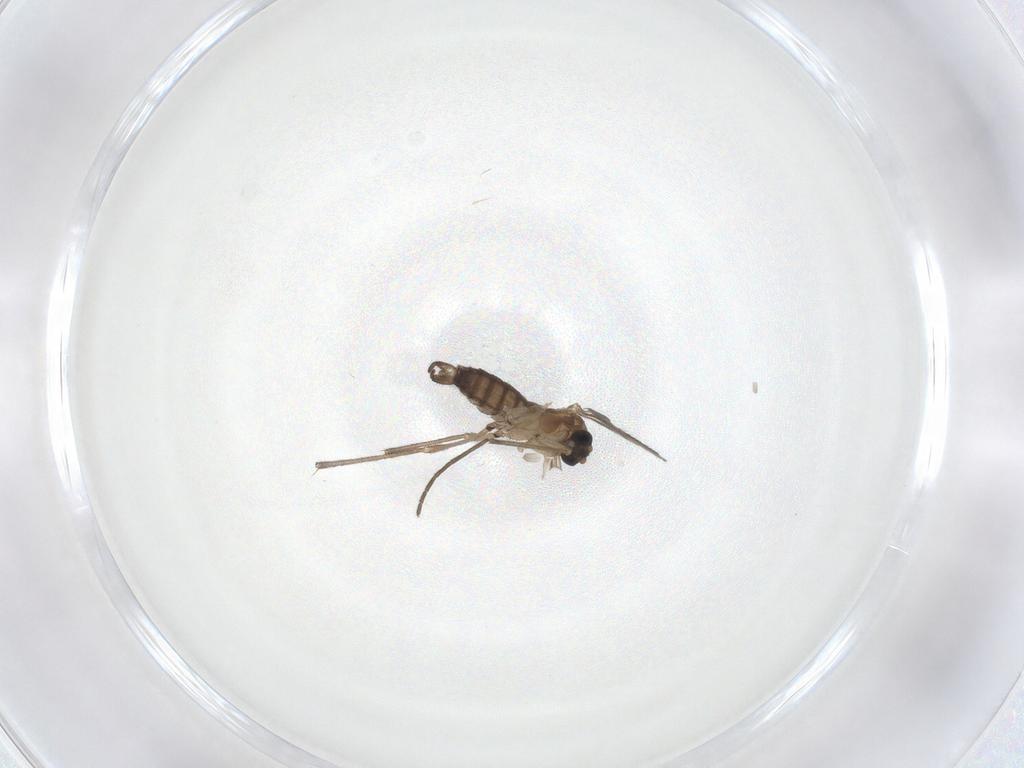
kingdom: Animalia
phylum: Arthropoda
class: Insecta
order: Diptera
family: Sciaridae
